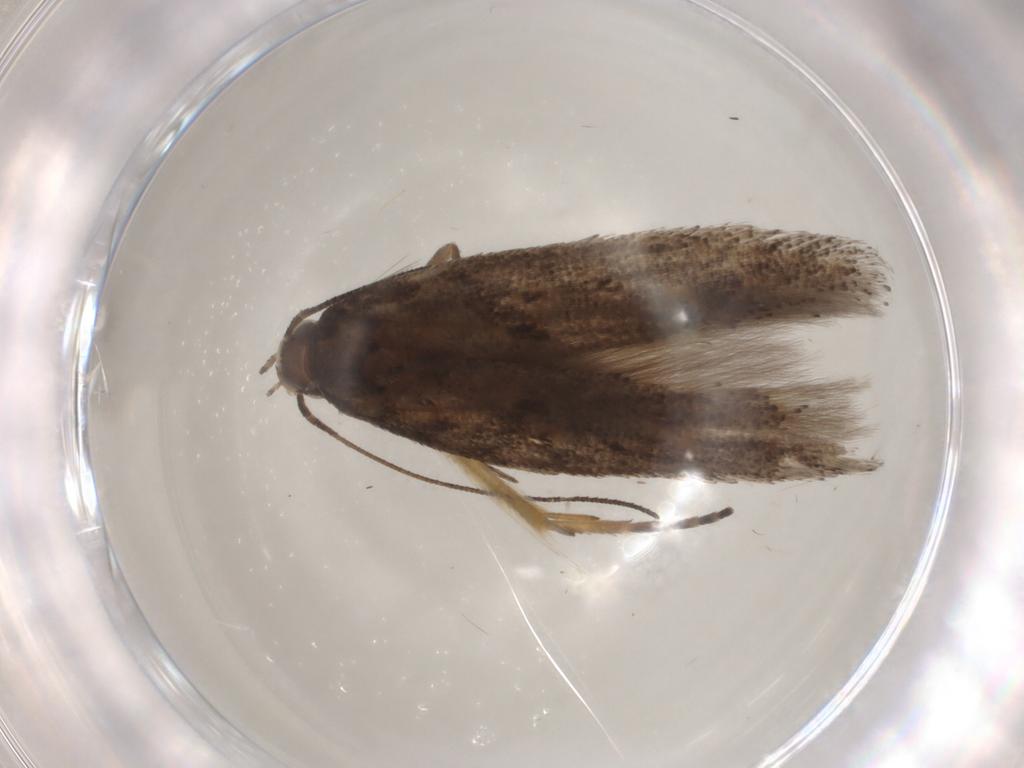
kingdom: Animalia
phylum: Arthropoda
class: Insecta
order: Lepidoptera
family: Gelechiidae
